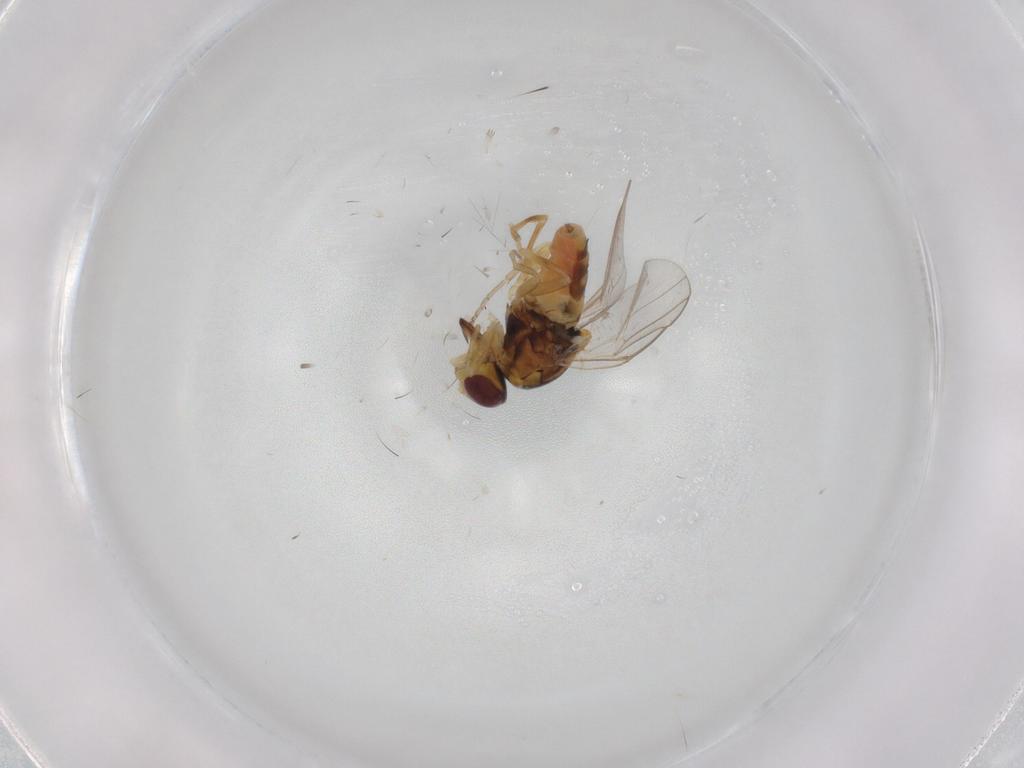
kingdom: Animalia
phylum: Arthropoda
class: Insecta
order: Diptera
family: Chloropidae
